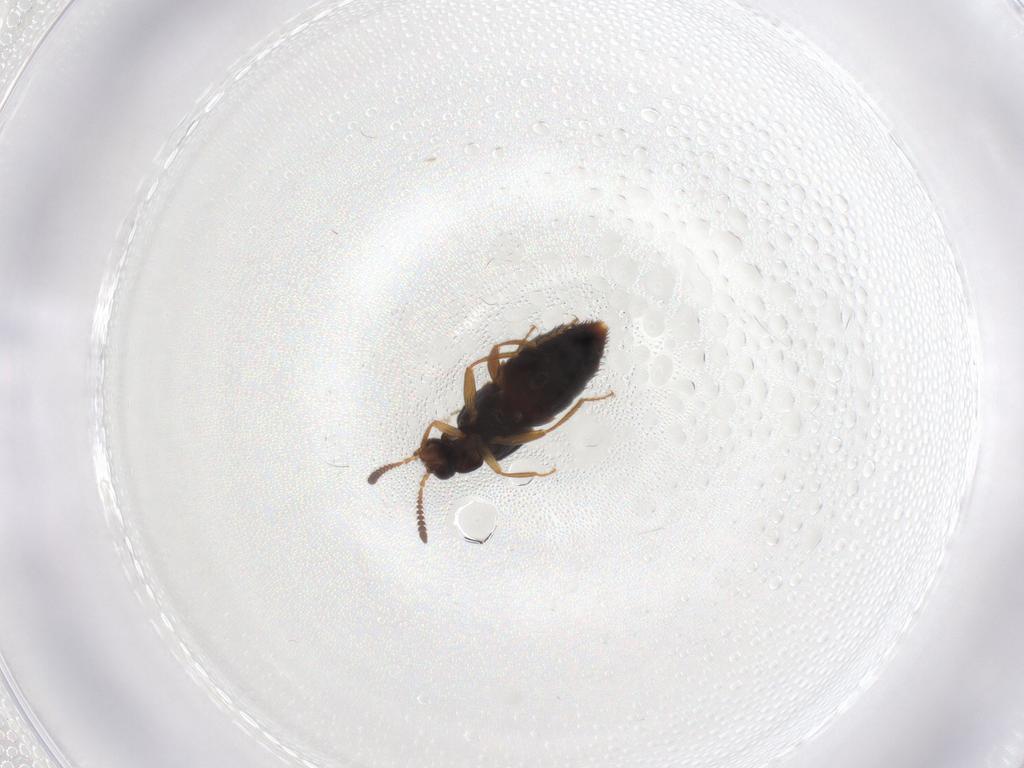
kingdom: Animalia
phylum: Arthropoda
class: Insecta
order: Coleoptera
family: Staphylinidae
